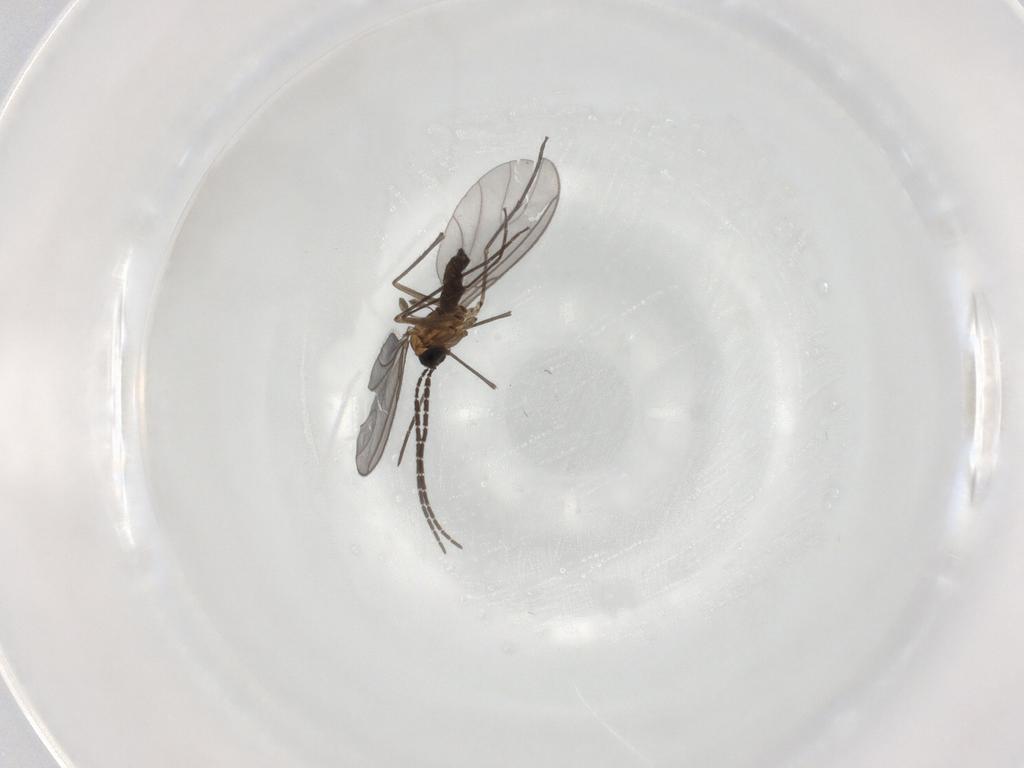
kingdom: Animalia
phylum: Arthropoda
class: Insecta
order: Diptera
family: Sciaridae
